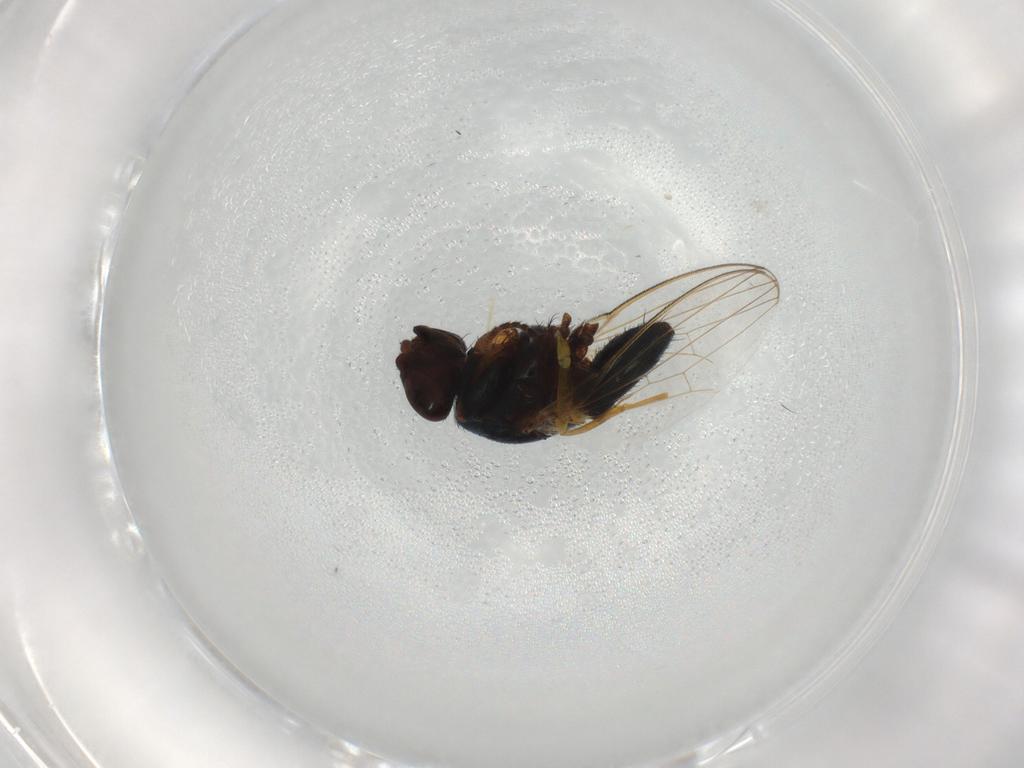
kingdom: Animalia
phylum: Arthropoda
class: Insecta
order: Diptera
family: Milichiidae
